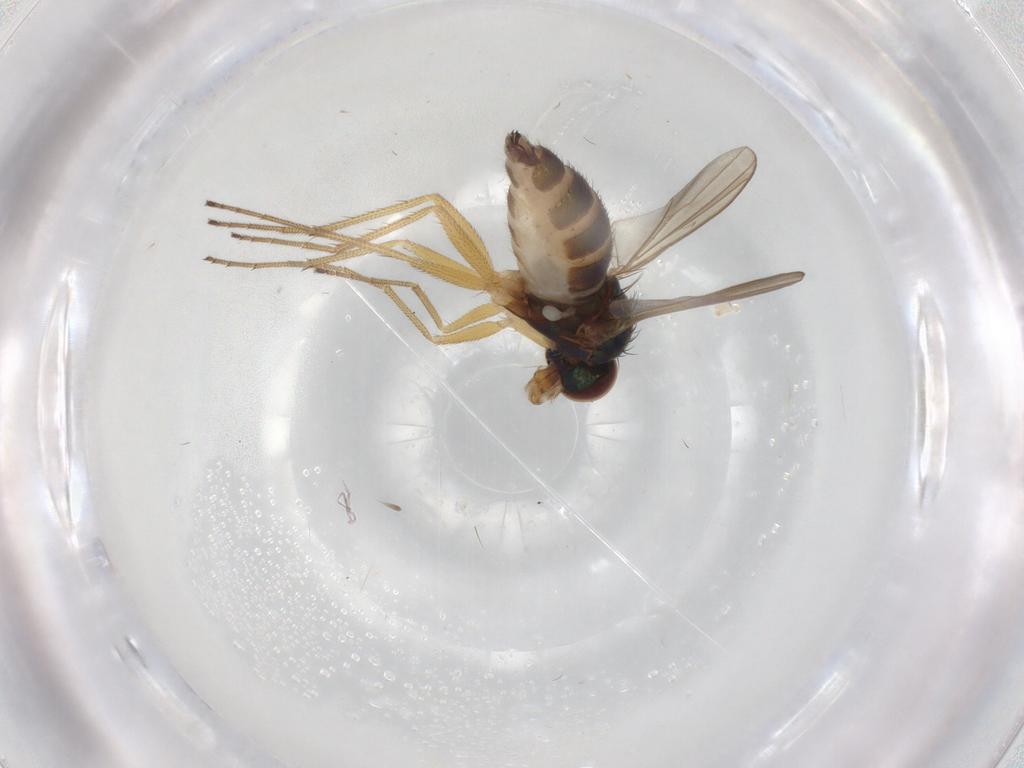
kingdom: Animalia
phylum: Arthropoda
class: Insecta
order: Diptera
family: Dolichopodidae
